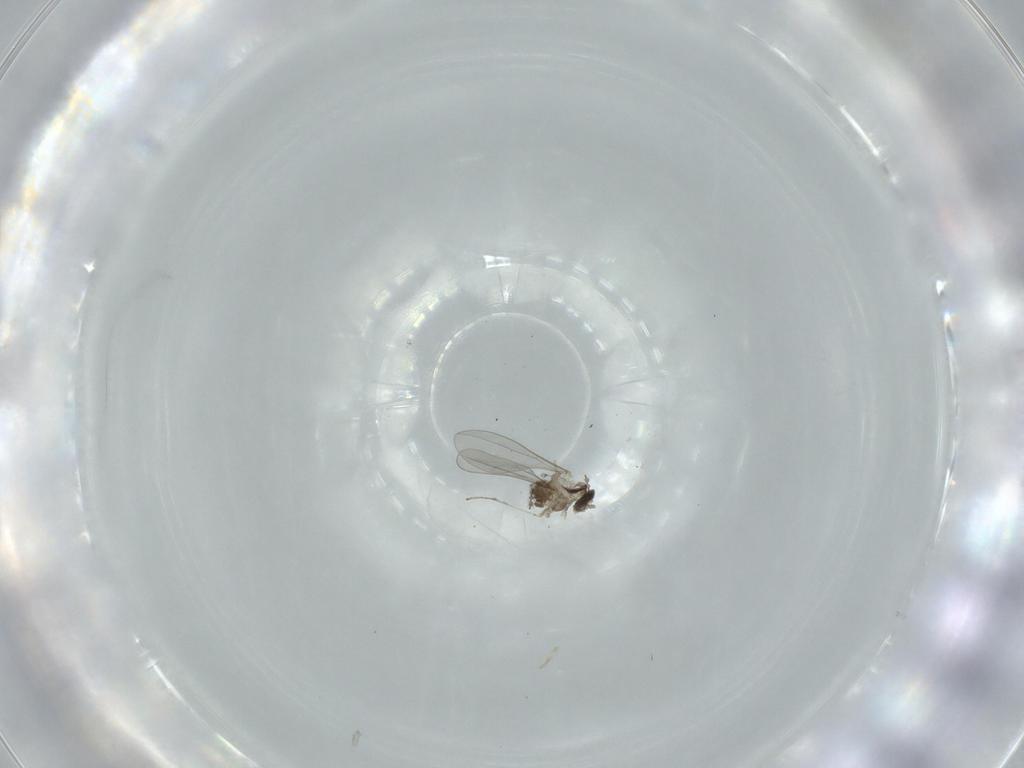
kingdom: Animalia
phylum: Arthropoda
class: Insecta
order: Diptera
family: Cecidomyiidae
